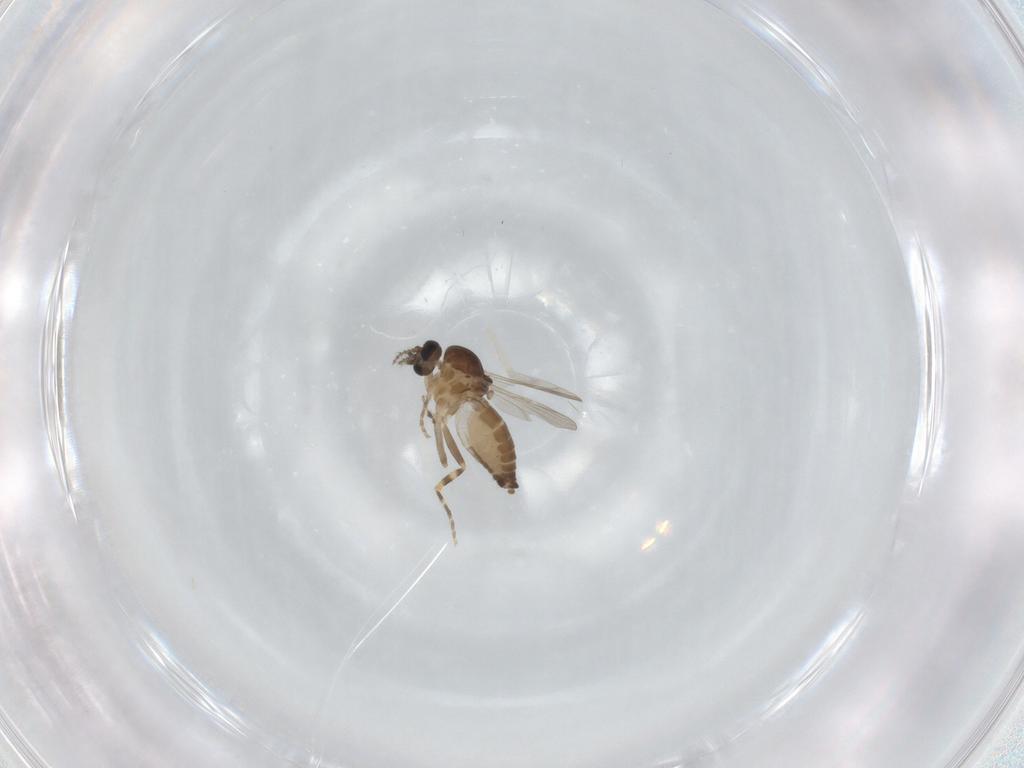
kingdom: Animalia
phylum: Arthropoda
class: Insecta
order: Diptera
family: Ceratopogonidae
